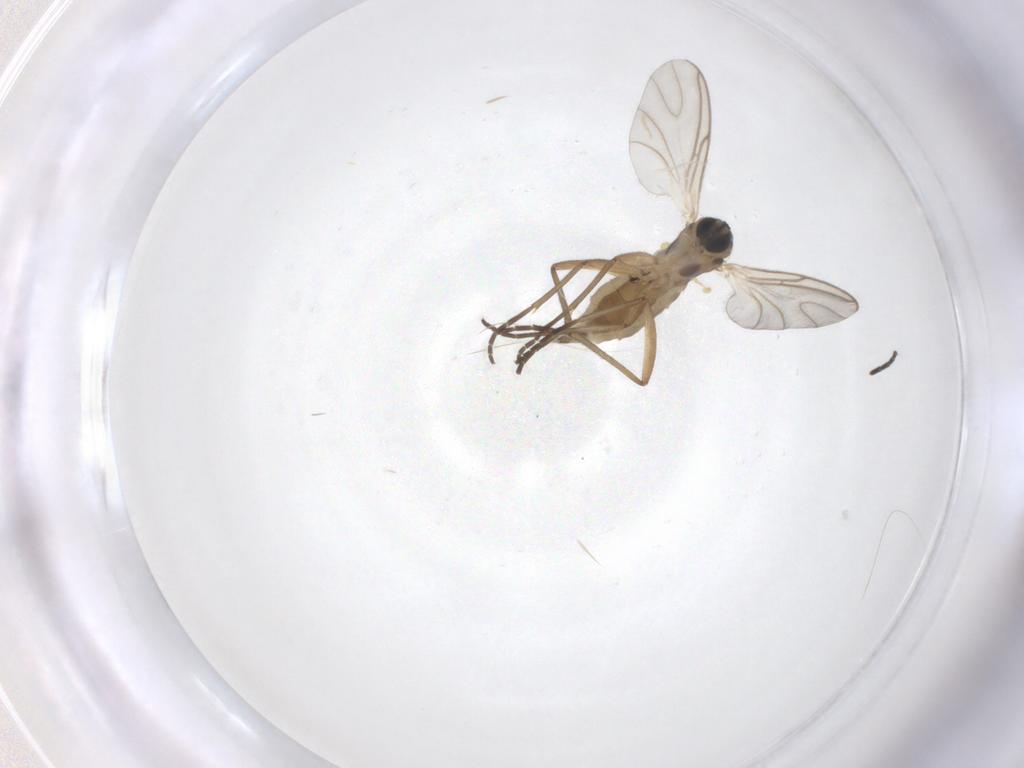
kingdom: Animalia
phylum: Arthropoda
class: Insecta
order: Diptera
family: Sciaridae
